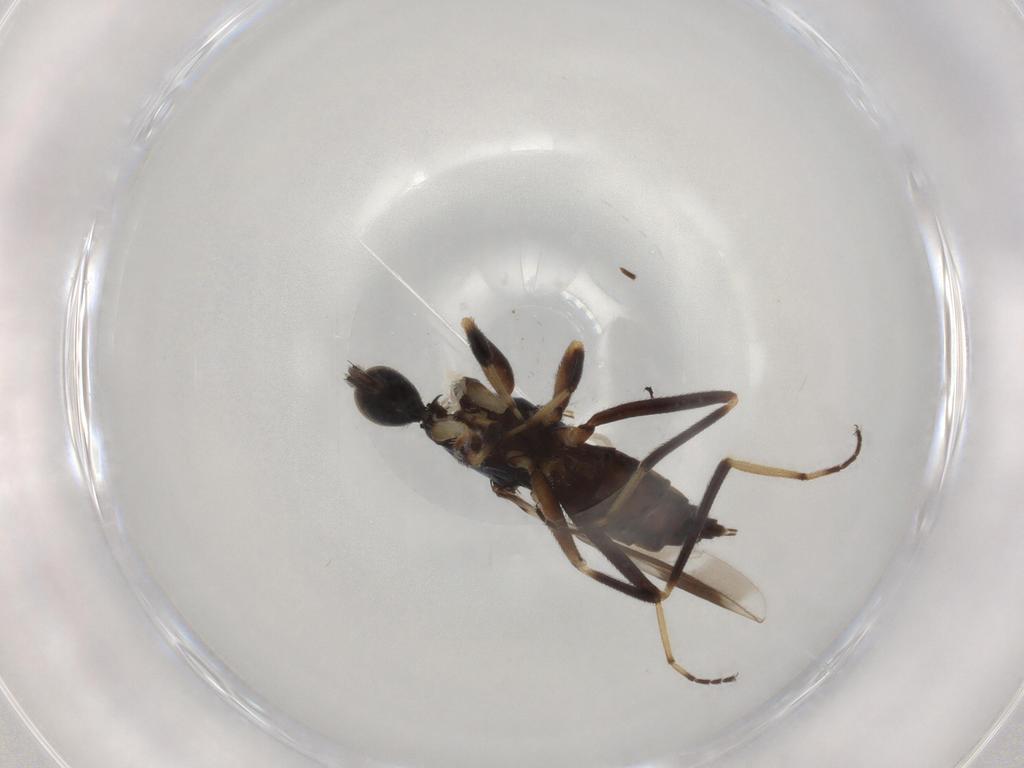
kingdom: Animalia
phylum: Arthropoda
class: Insecta
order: Diptera
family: Hybotidae
